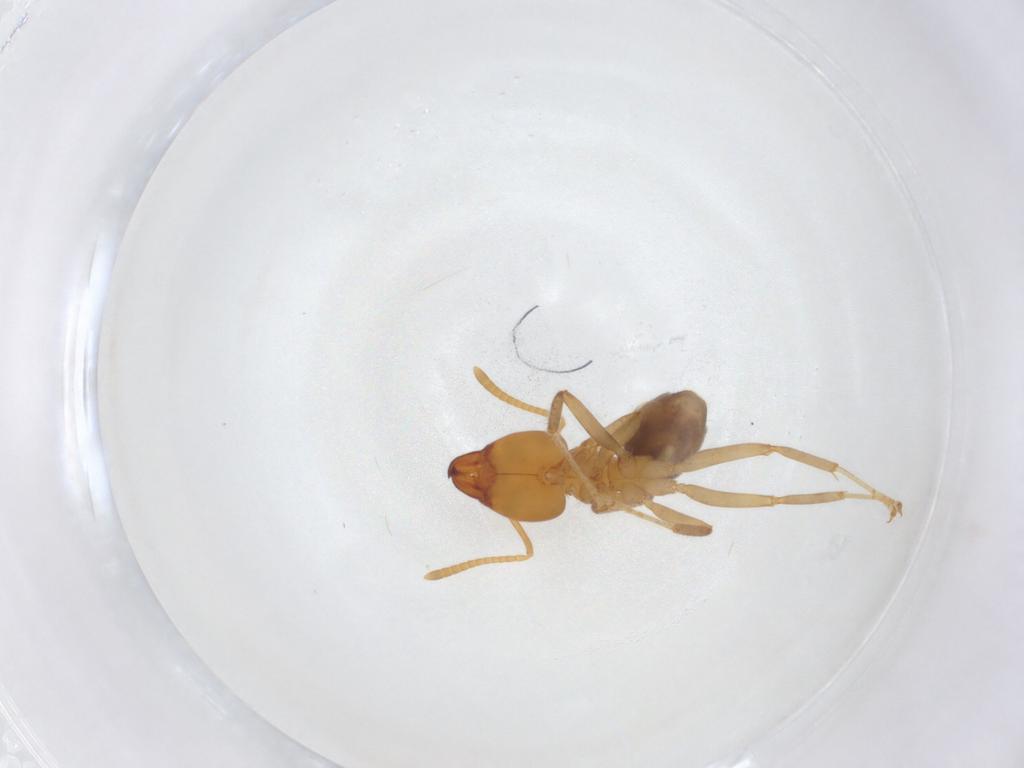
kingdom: Animalia
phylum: Arthropoda
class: Insecta
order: Hymenoptera
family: Formicidae
